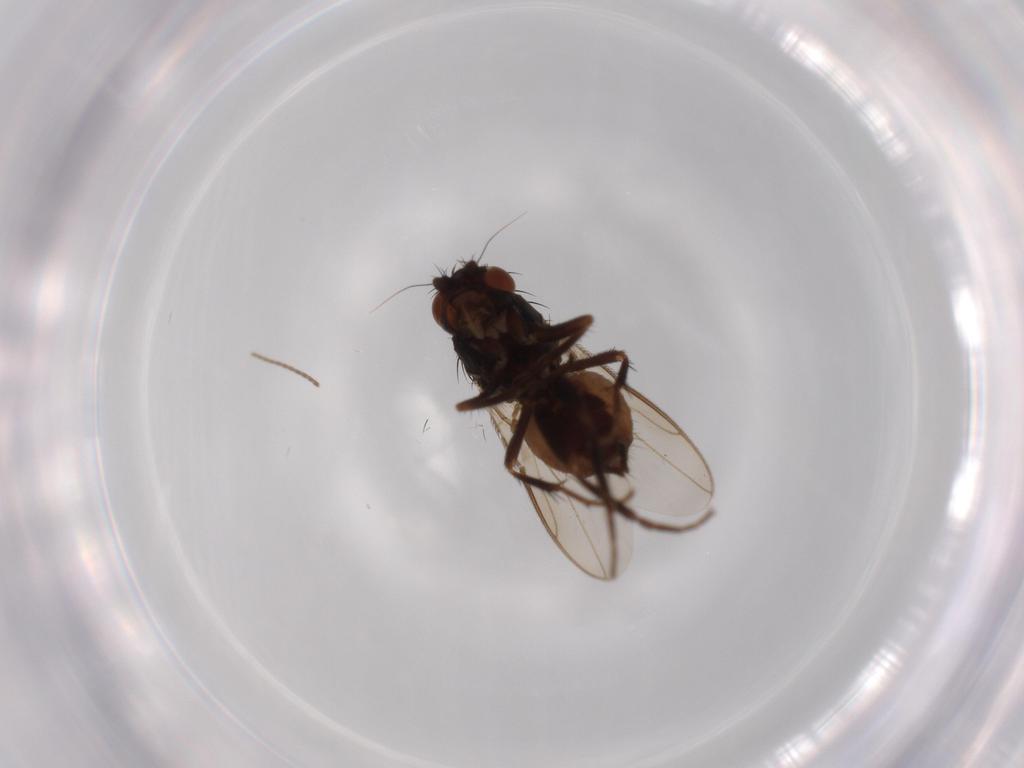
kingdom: Animalia
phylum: Arthropoda
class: Insecta
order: Diptera
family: Sphaeroceridae
